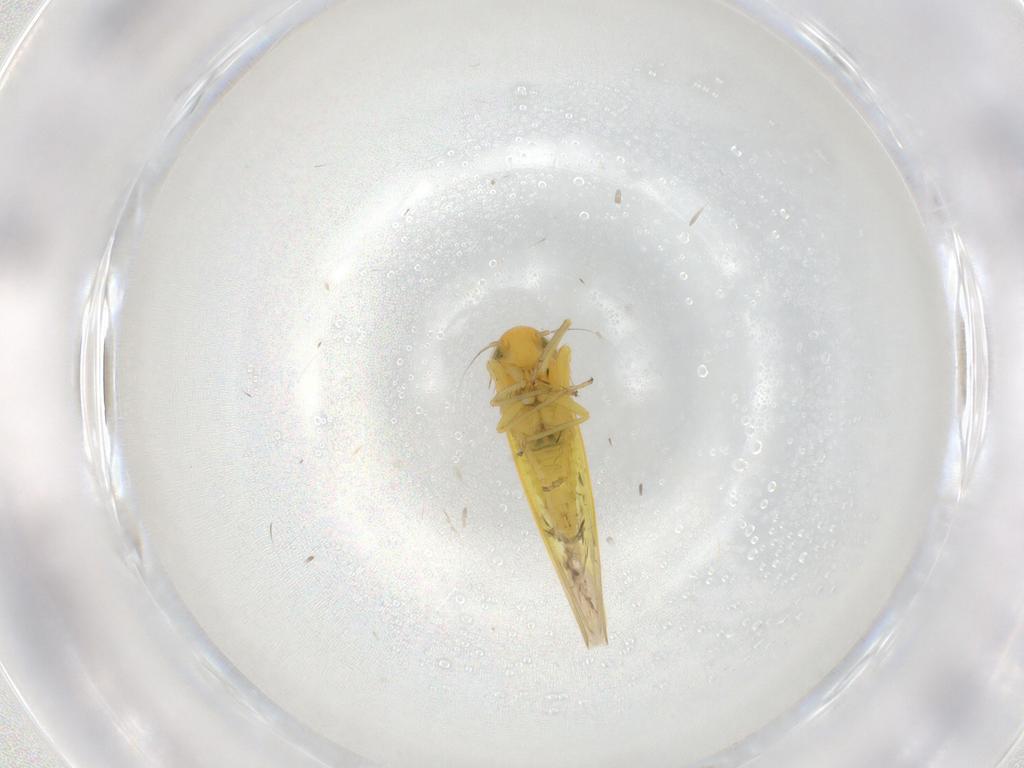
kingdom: Animalia
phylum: Arthropoda
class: Insecta
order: Hemiptera
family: Cicadellidae
